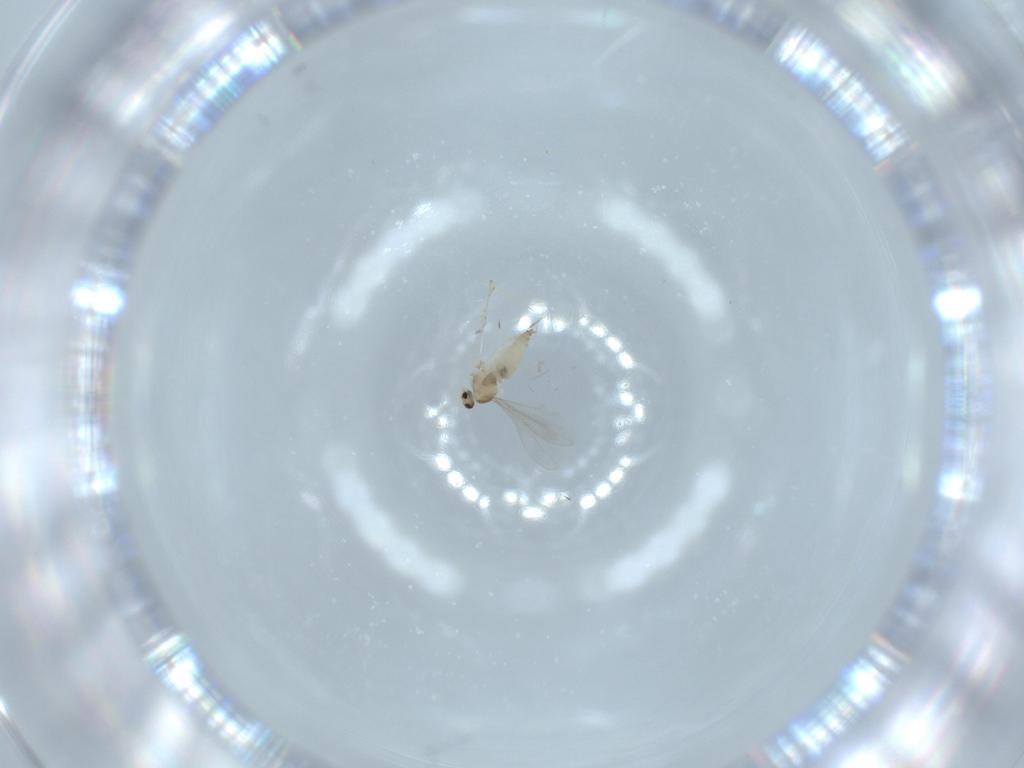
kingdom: Animalia
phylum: Arthropoda
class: Insecta
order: Diptera
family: Cecidomyiidae
